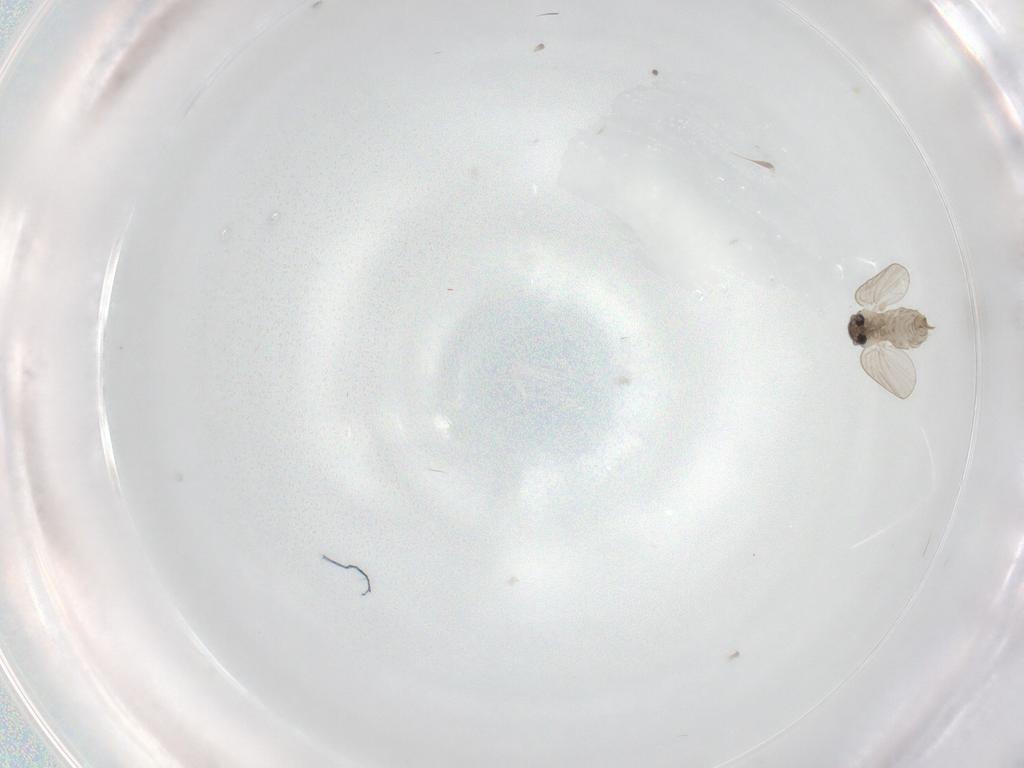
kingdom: Animalia
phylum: Arthropoda
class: Insecta
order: Diptera
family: Psychodidae
